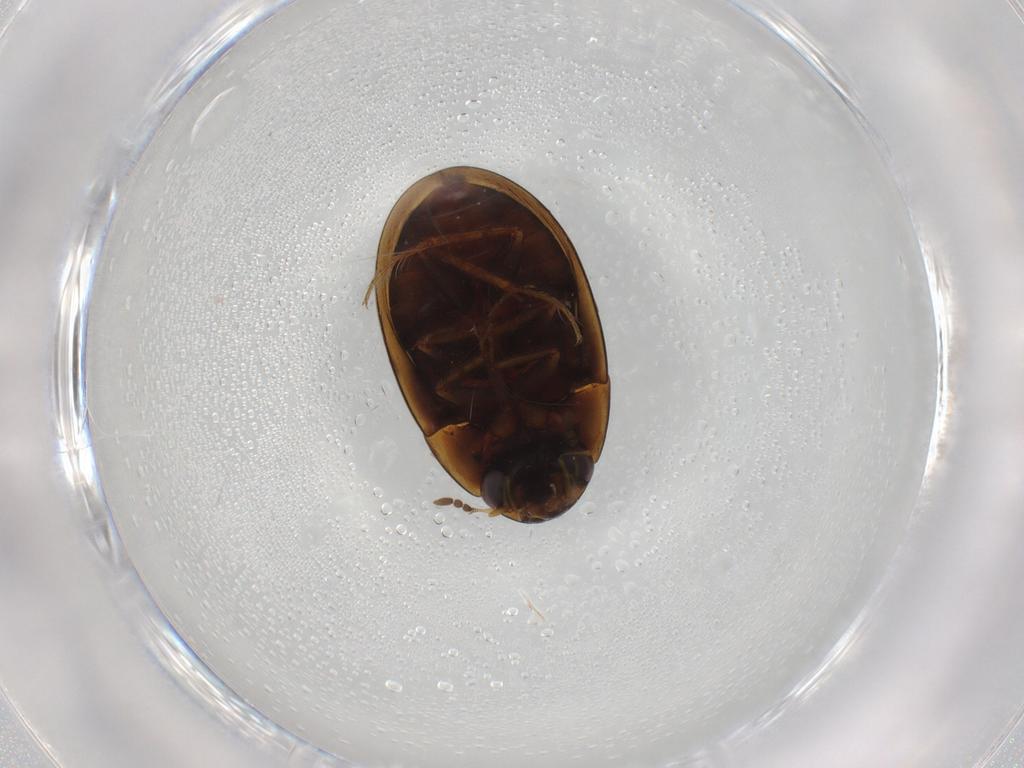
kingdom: Animalia
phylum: Arthropoda
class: Insecta
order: Coleoptera
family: Hydrophilidae
